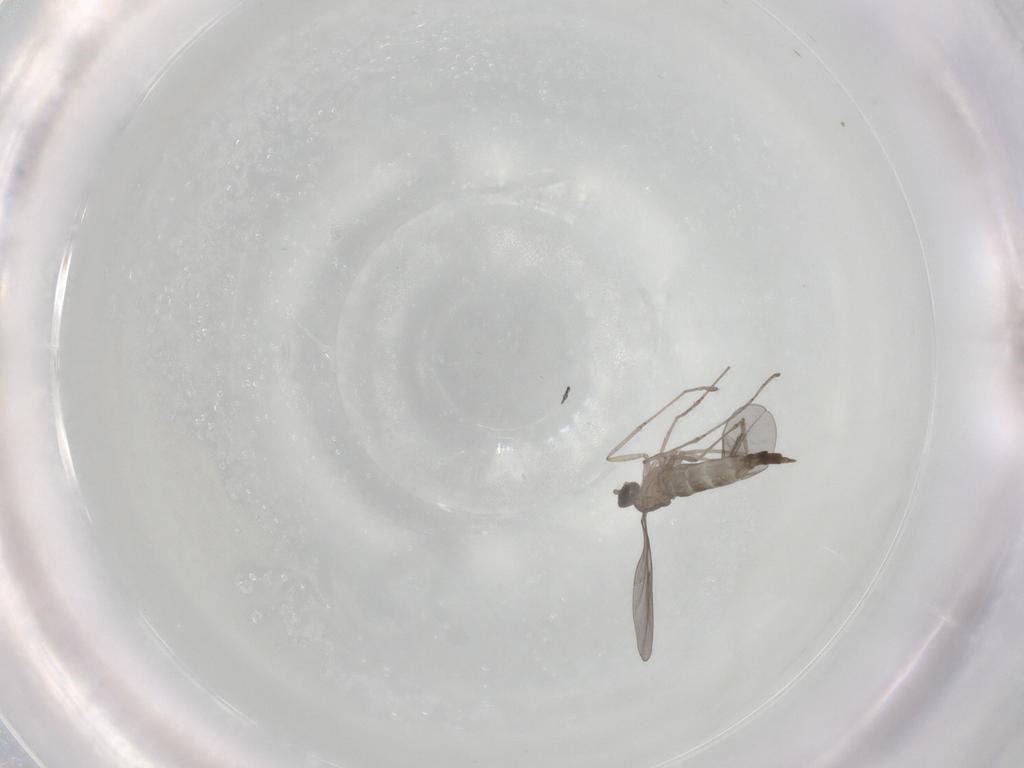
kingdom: Animalia
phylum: Arthropoda
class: Insecta
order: Diptera
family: Cecidomyiidae
